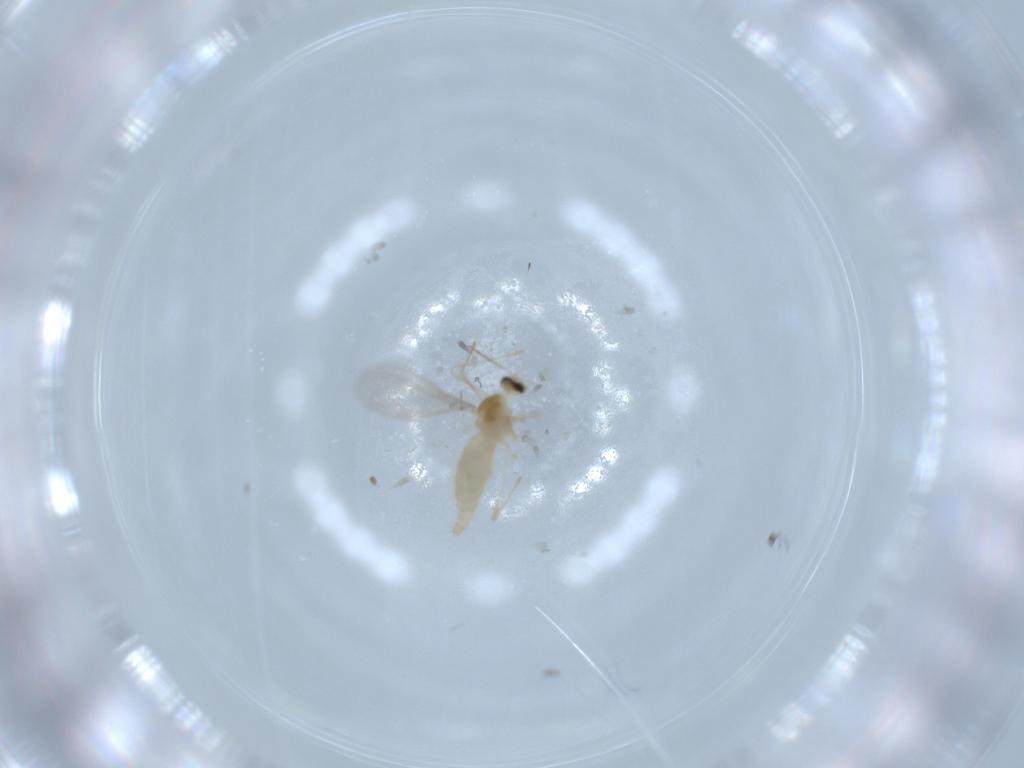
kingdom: Animalia
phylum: Arthropoda
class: Insecta
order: Diptera
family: Cecidomyiidae
